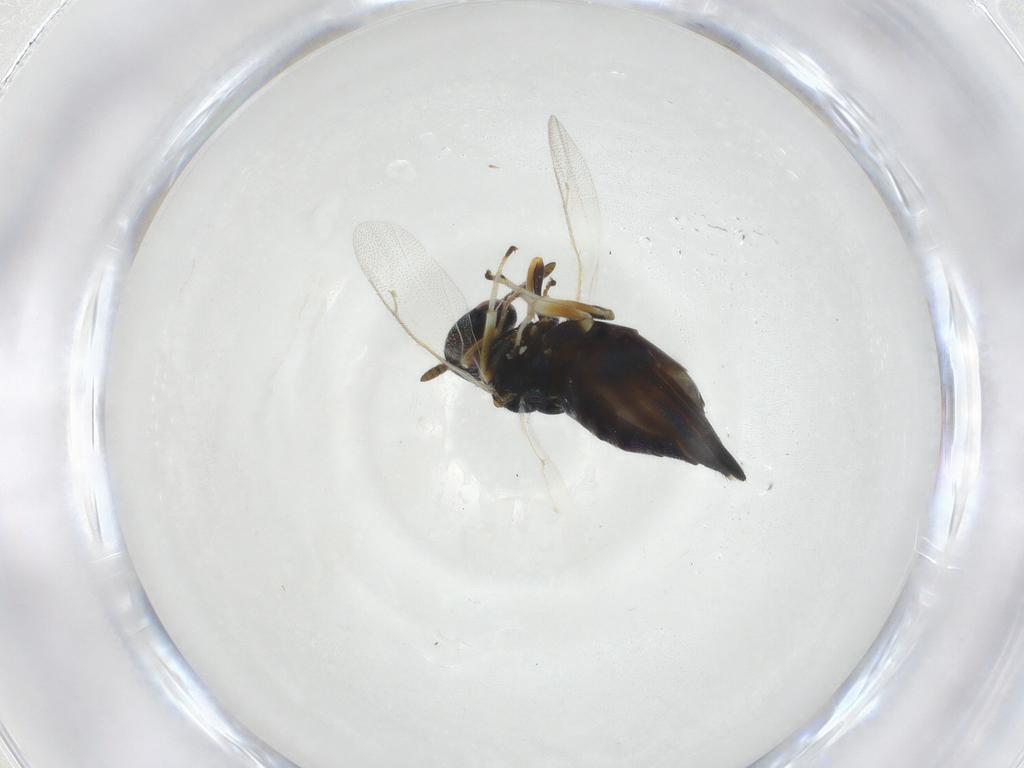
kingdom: Animalia
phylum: Arthropoda
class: Insecta
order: Hymenoptera
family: Pteromalidae
